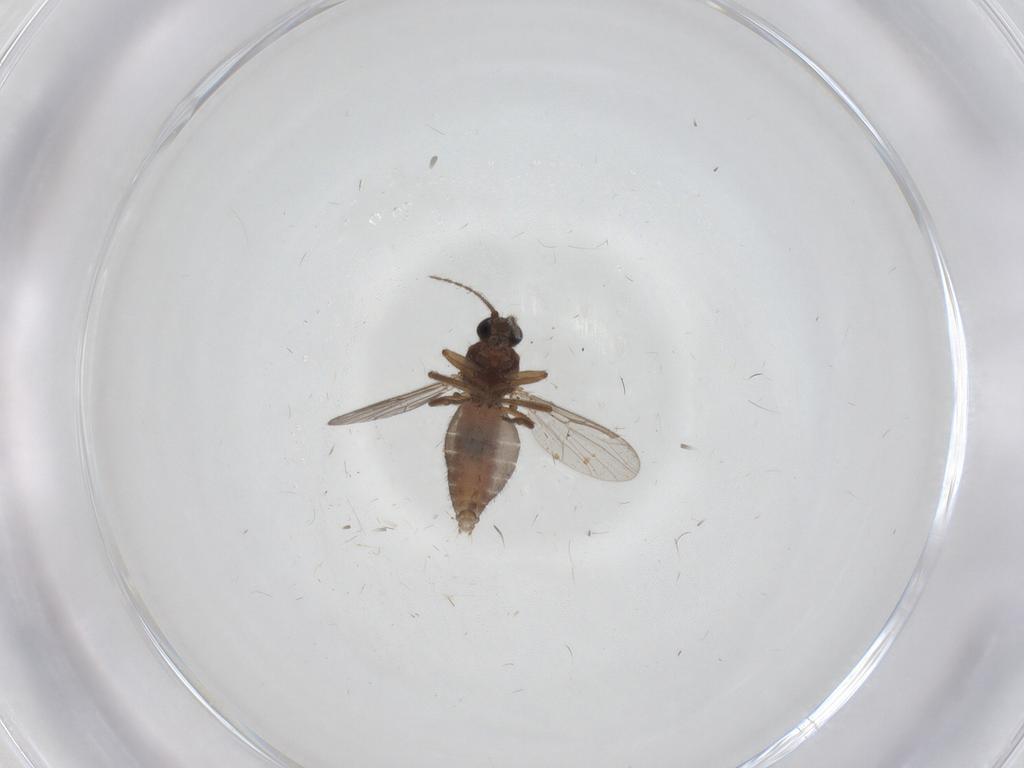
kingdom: Animalia
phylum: Arthropoda
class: Insecta
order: Diptera
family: Ceratopogonidae
